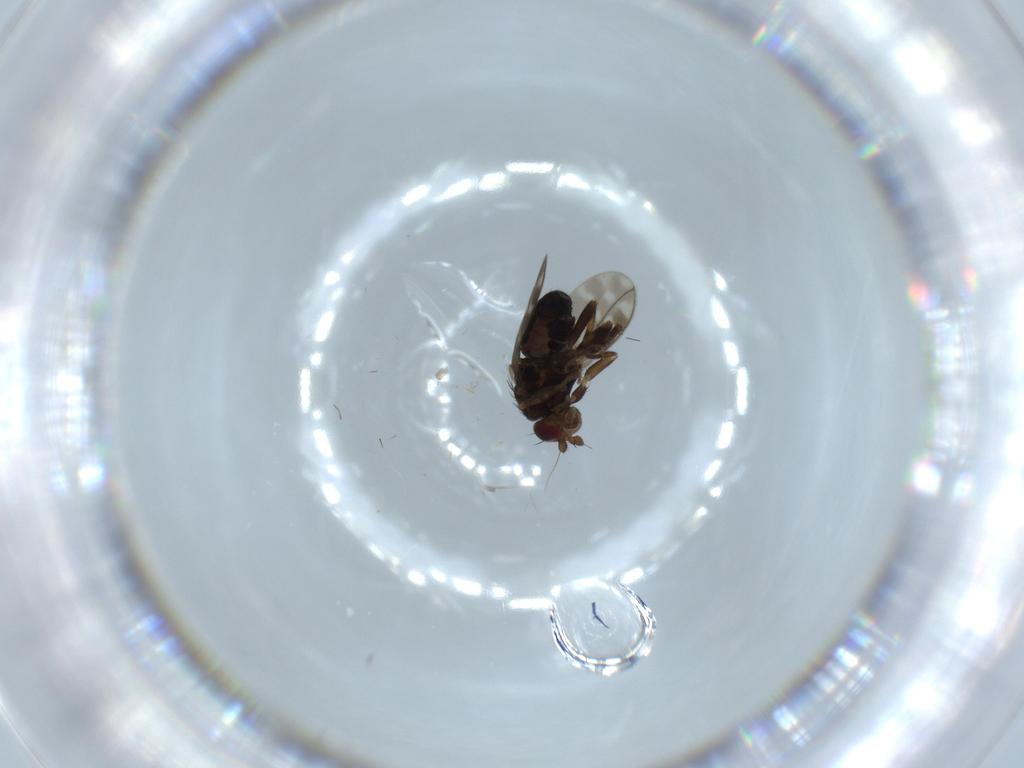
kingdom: Animalia
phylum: Arthropoda
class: Insecta
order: Diptera
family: Sphaeroceridae
